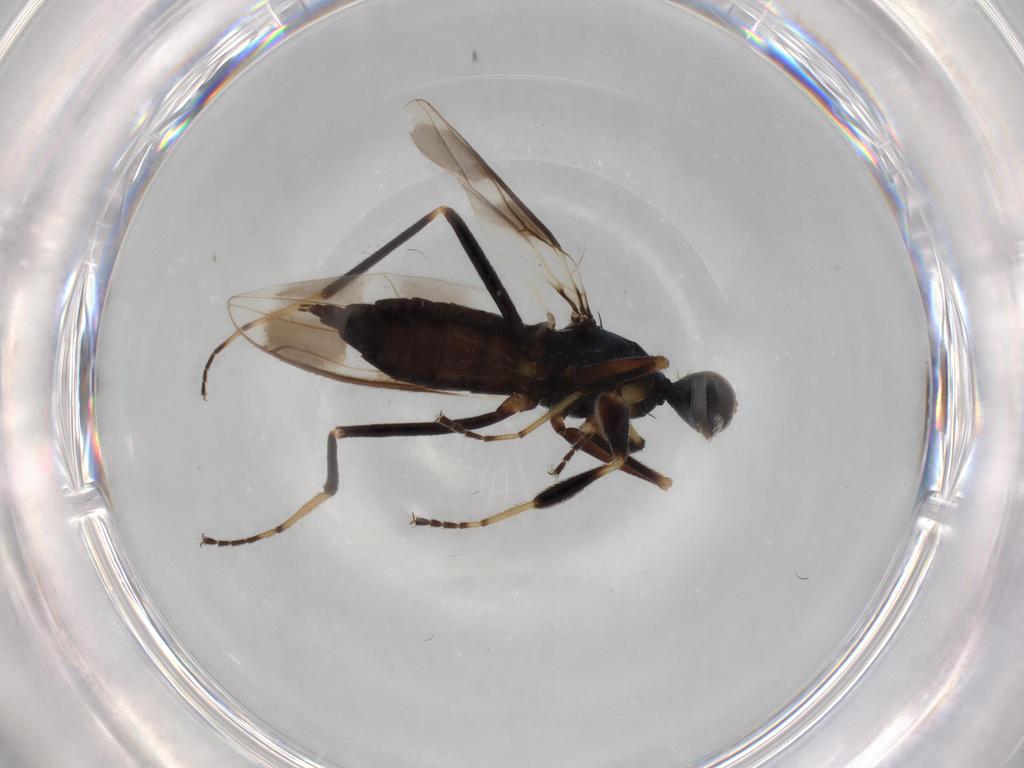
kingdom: Animalia
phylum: Arthropoda
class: Insecta
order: Diptera
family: Hybotidae
